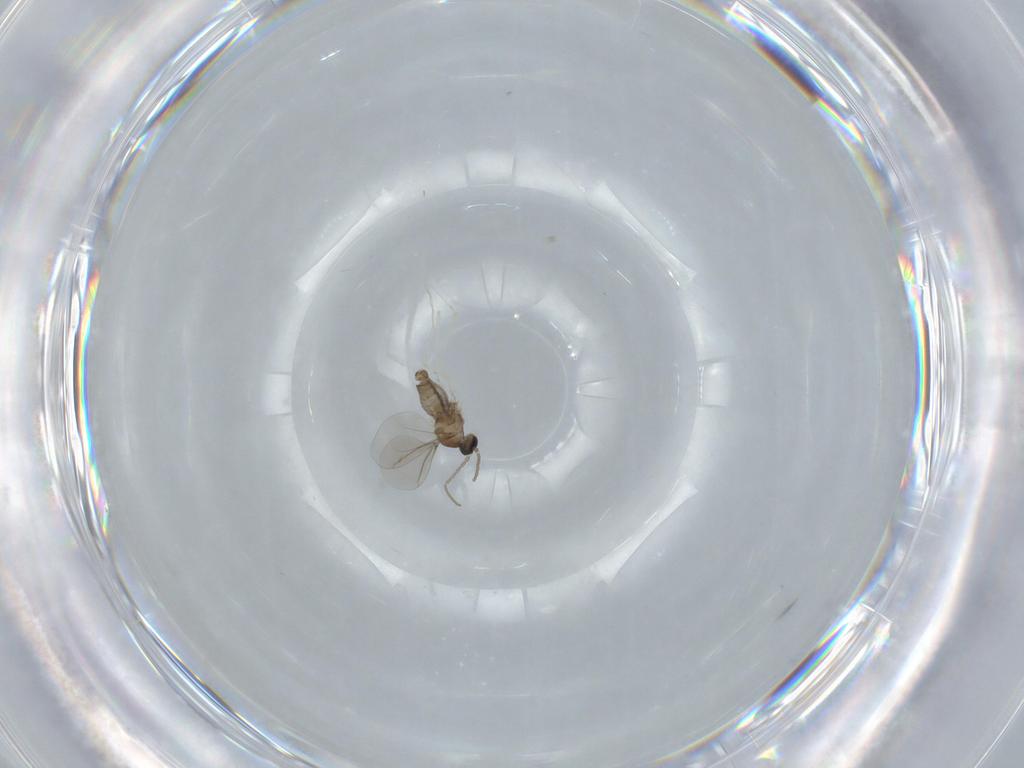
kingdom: Animalia
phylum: Arthropoda
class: Insecta
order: Diptera
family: Cecidomyiidae
